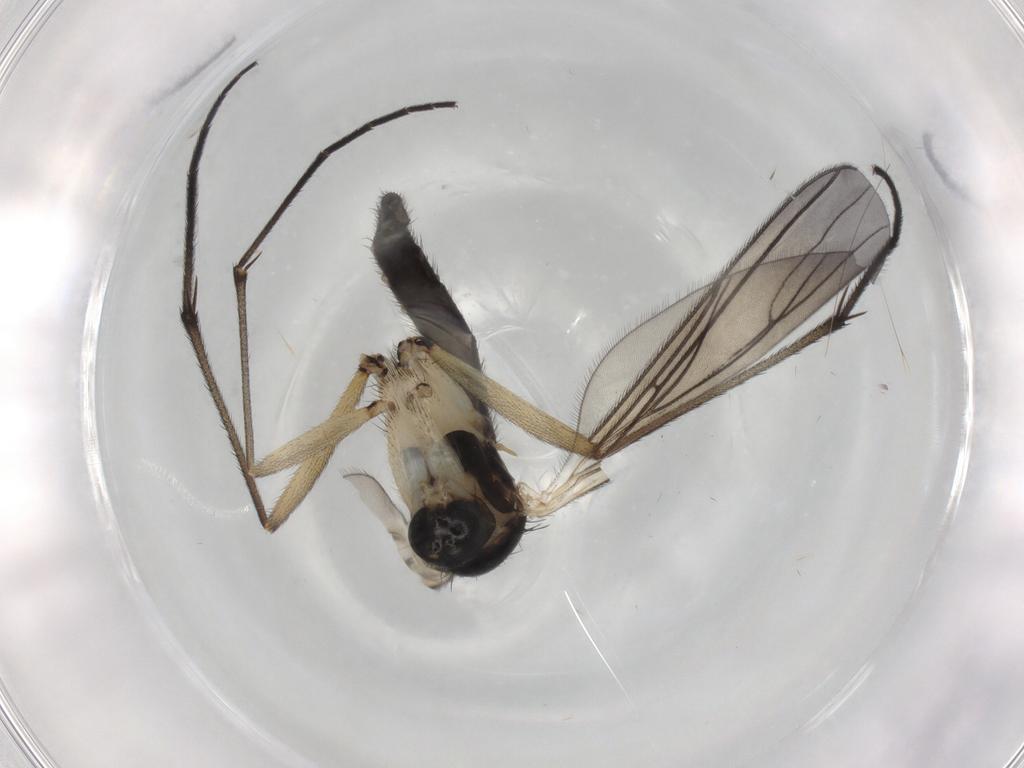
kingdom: Animalia
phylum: Arthropoda
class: Insecta
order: Diptera
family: Sciaridae
